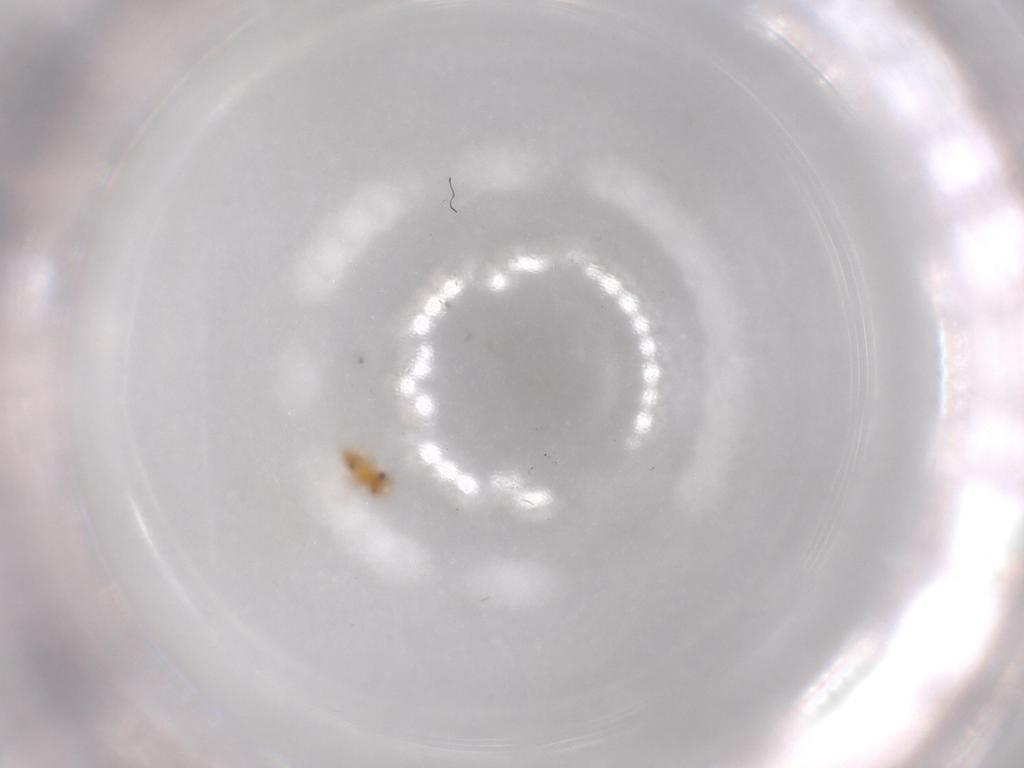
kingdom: Animalia
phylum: Arthropoda
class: Insecta
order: Hymenoptera
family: Trichogrammatidae
